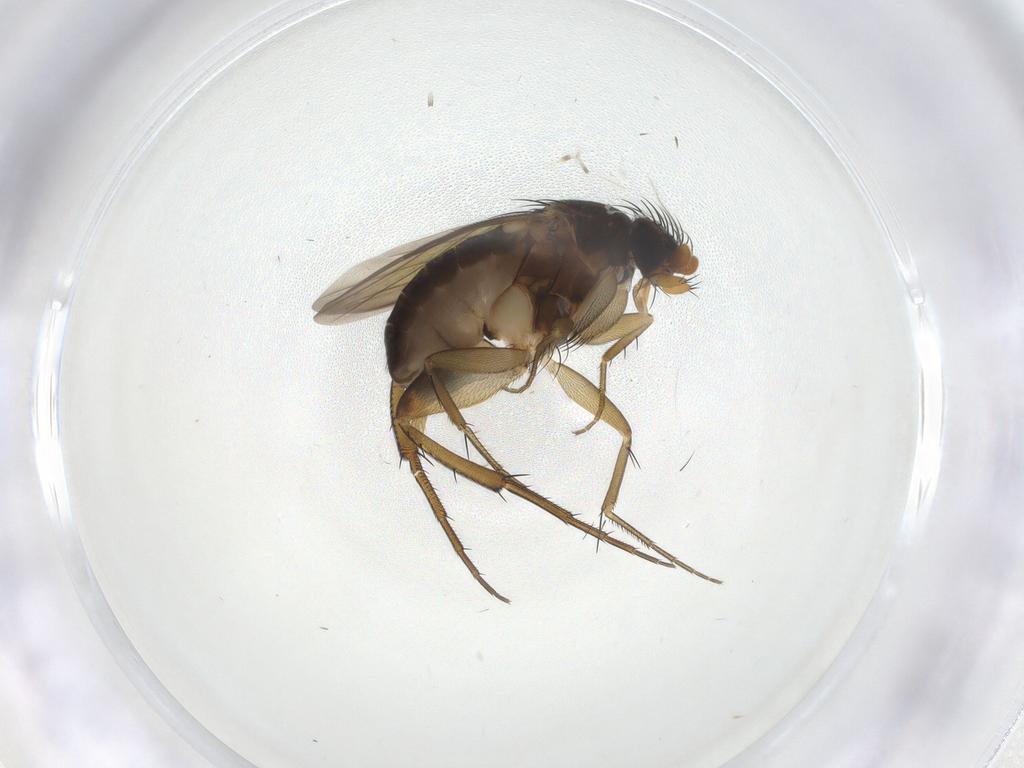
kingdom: Animalia
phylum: Arthropoda
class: Insecta
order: Diptera
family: Phoridae
